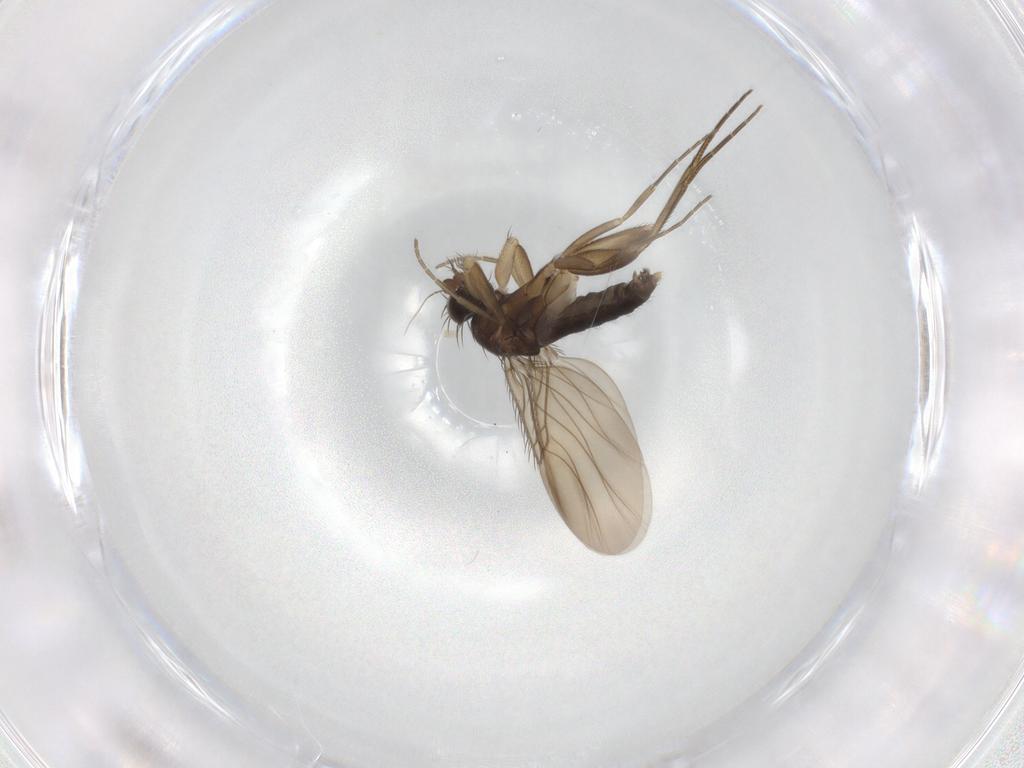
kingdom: Animalia
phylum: Arthropoda
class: Insecta
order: Diptera
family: Phoridae
